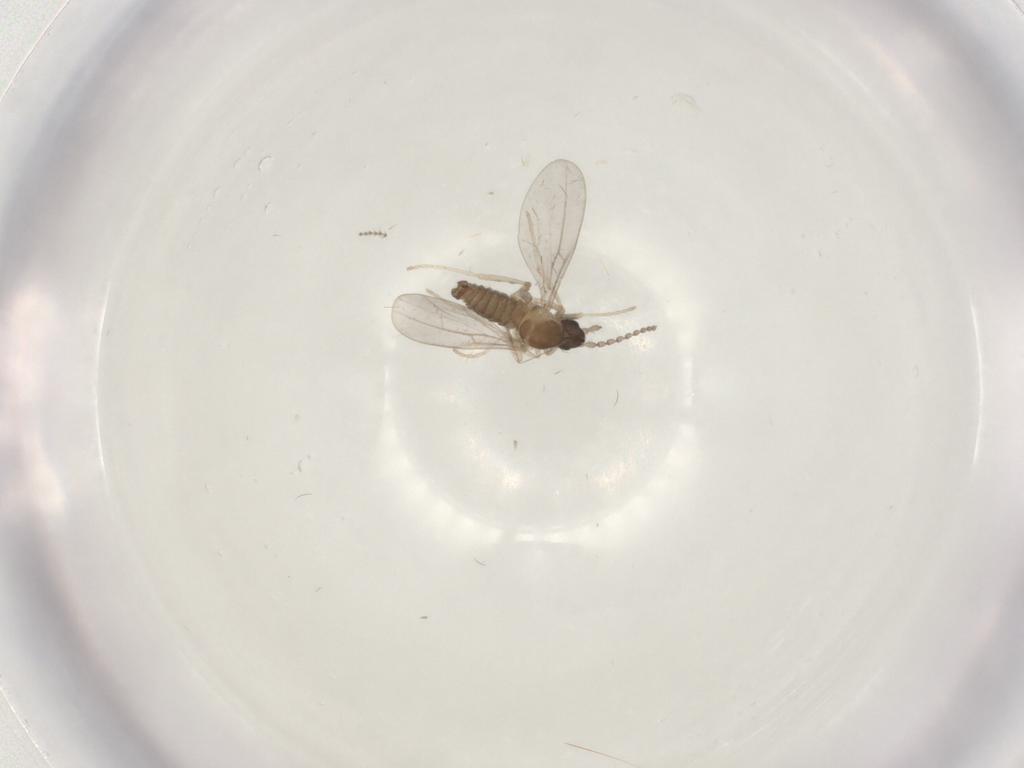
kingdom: Animalia
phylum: Arthropoda
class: Insecta
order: Diptera
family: Cecidomyiidae
